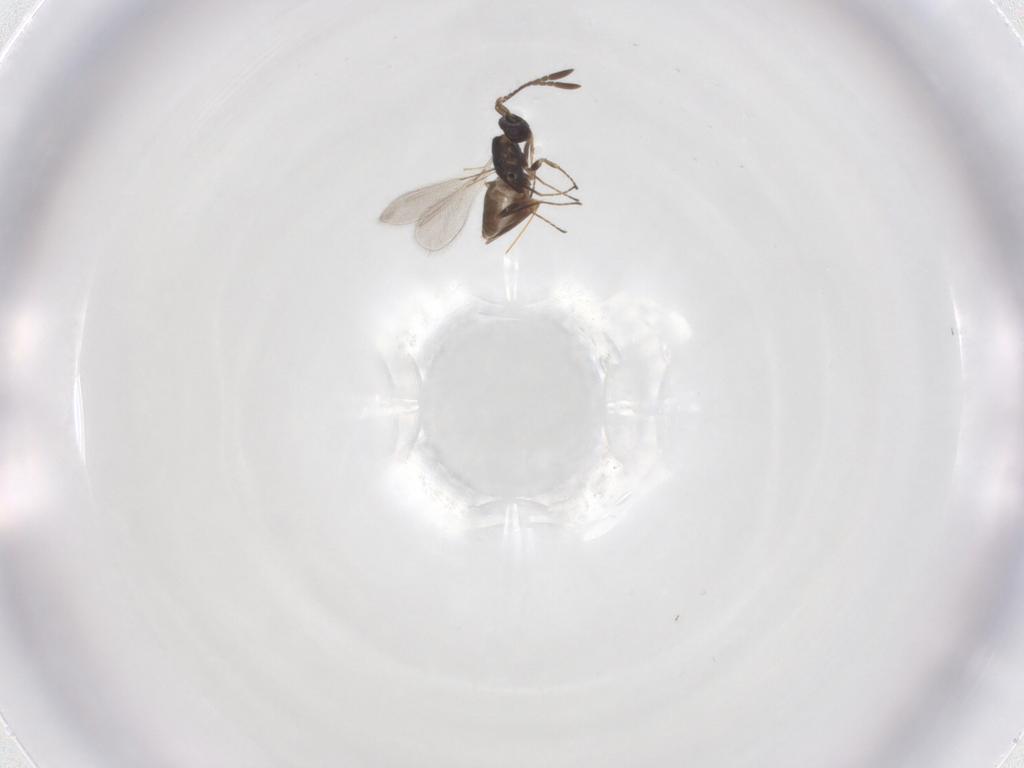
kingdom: Animalia
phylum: Arthropoda
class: Insecta
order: Hymenoptera
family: Mymaridae
